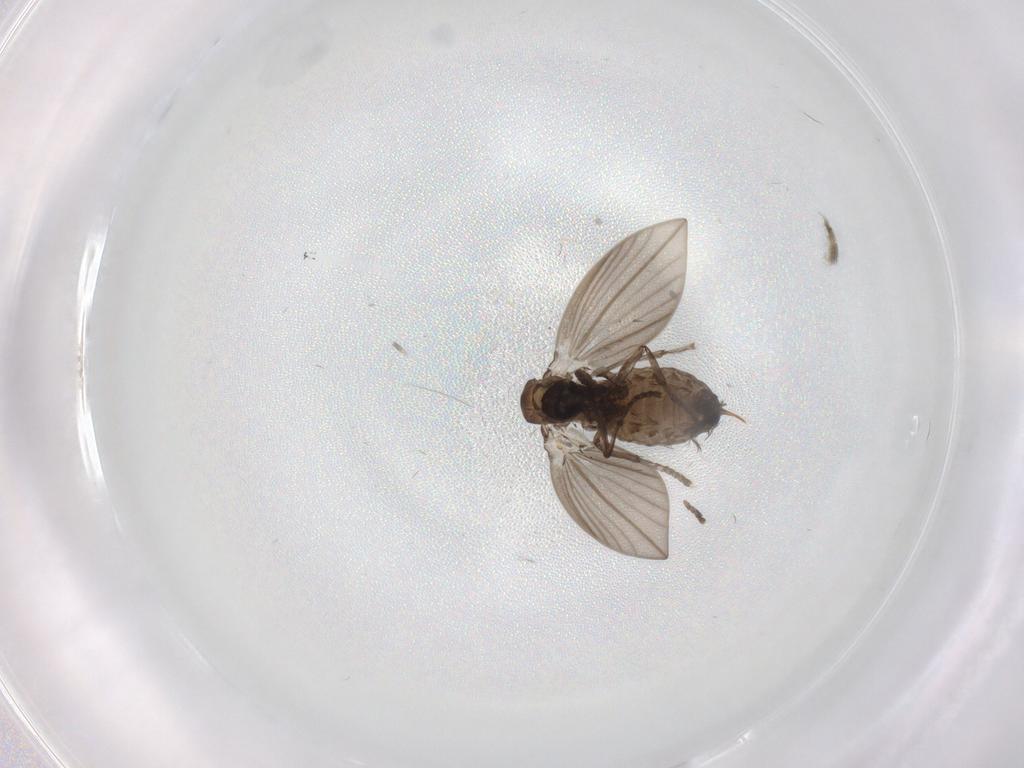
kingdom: Animalia
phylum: Arthropoda
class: Insecta
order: Diptera
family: Psychodidae
